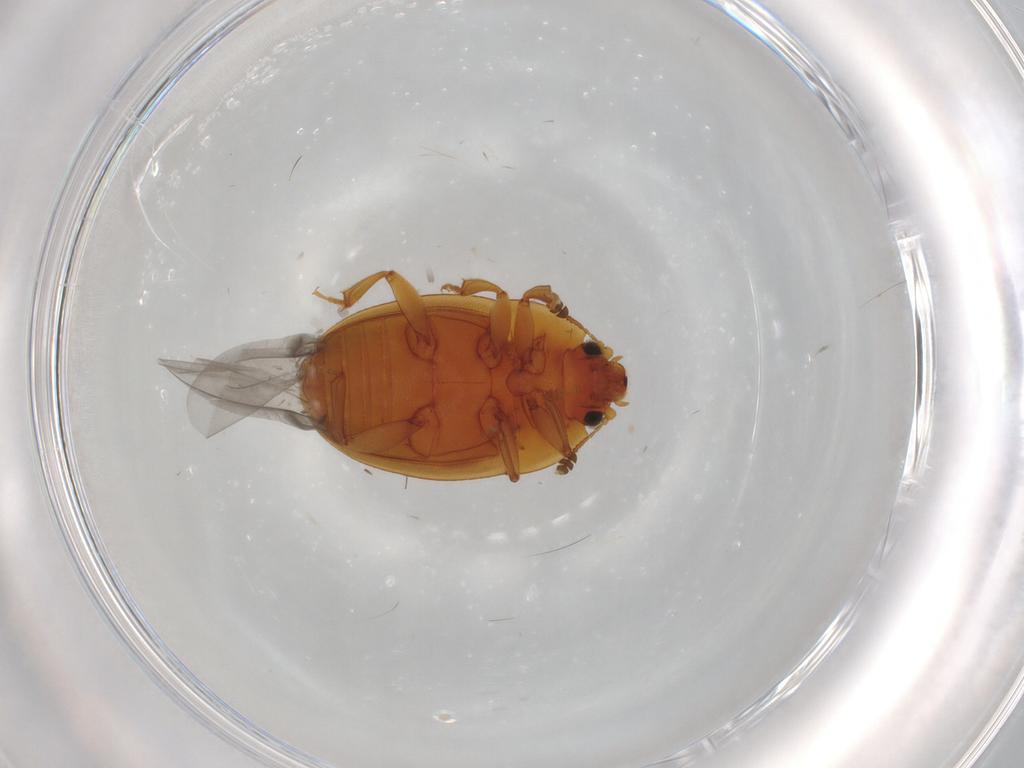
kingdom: Animalia
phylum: Arthropoda
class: Insecta
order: Coleoptera
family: Nitidulidae
